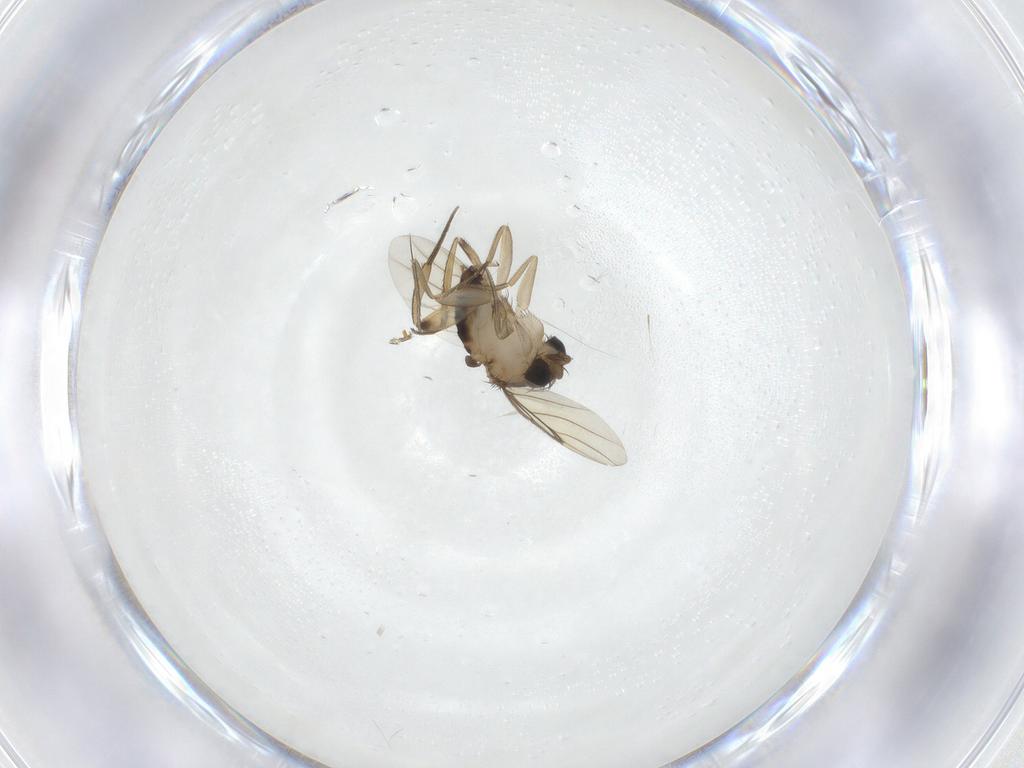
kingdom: Animalia
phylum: Arthropoda
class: Insecta
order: Diptera
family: Phoridae
